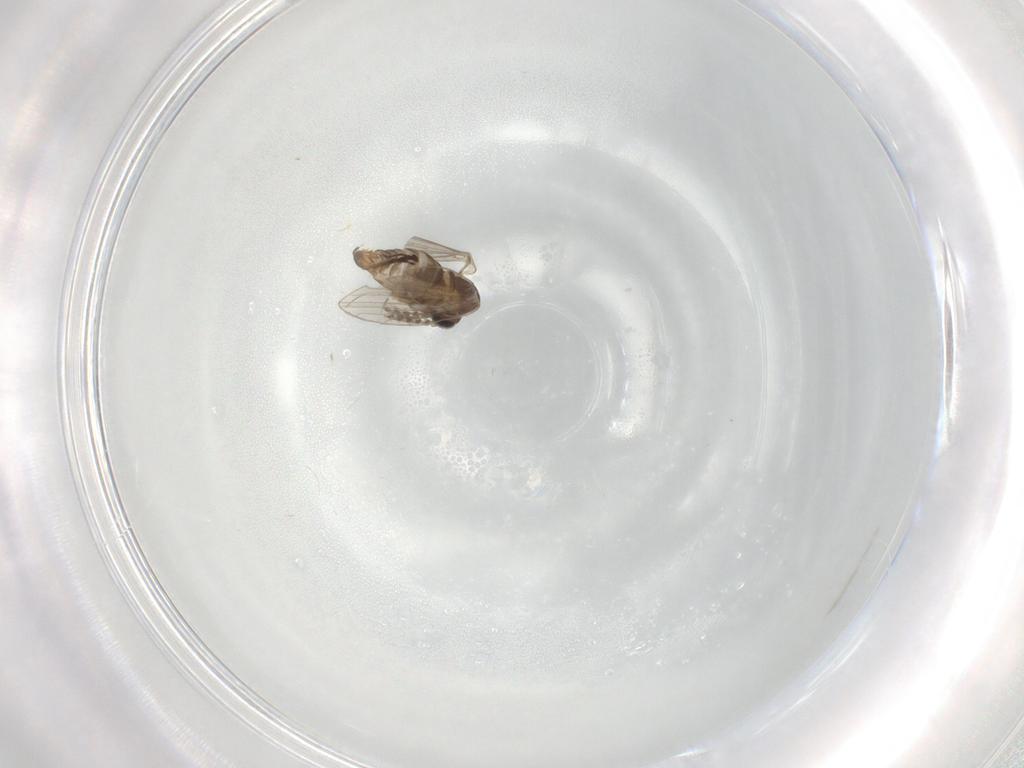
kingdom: Animalia
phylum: Arthropoda
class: Insecta
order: Diptera
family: Psychodidae
